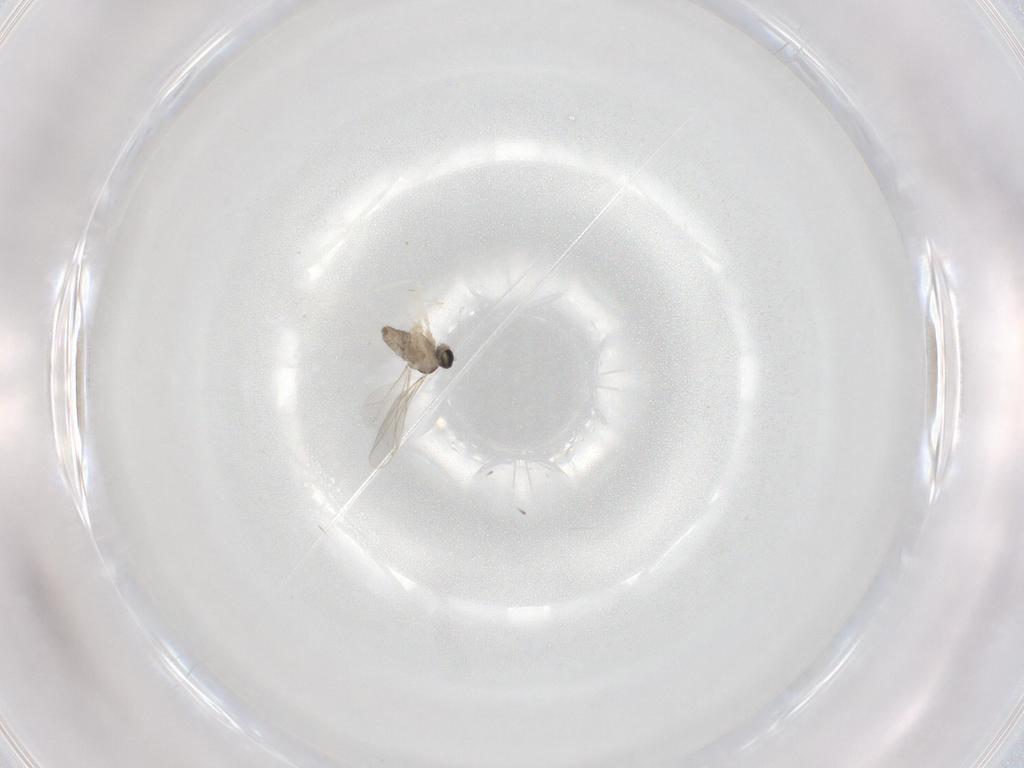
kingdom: Animalia
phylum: Arthropoda
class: Insecta
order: Diptera
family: Cecidomyiidae
